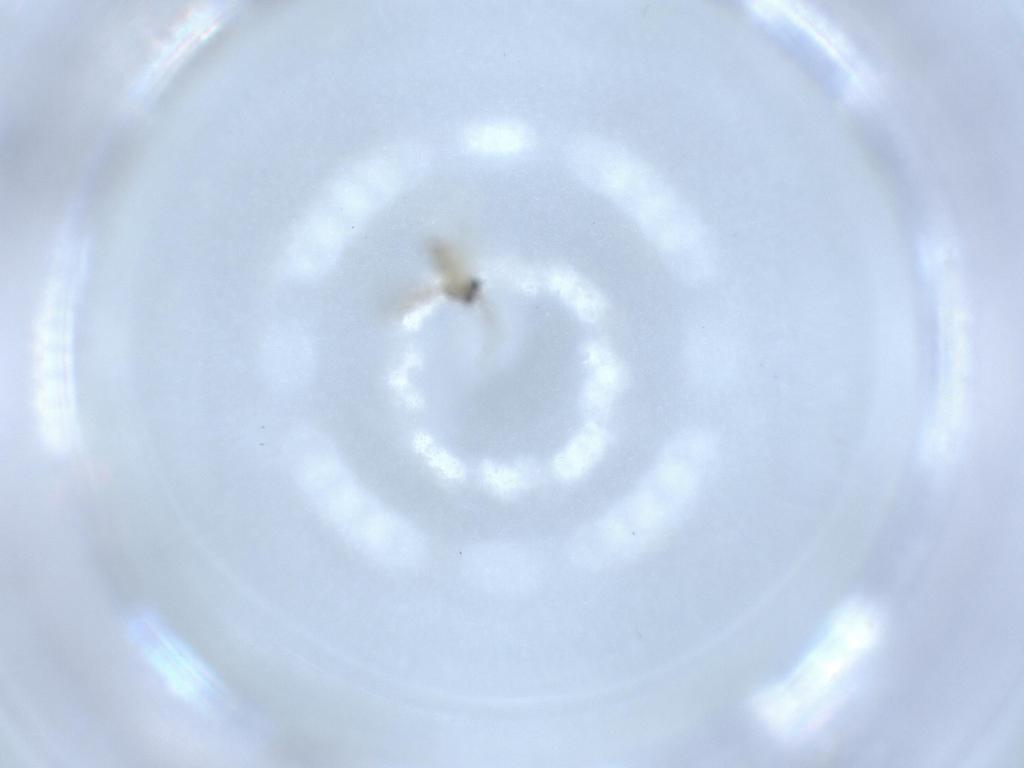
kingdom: Animalia
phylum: Arthropoda
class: Insecta
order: Diptera
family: Cecidomyiidae
